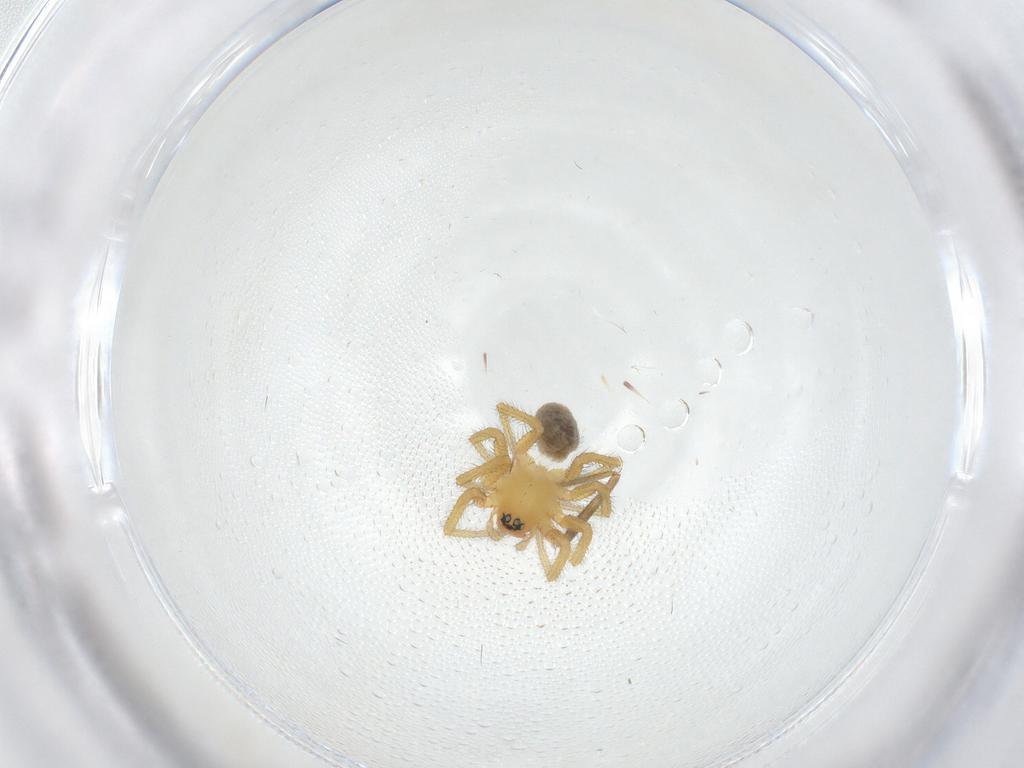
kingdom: Animalia
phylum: Arthropoda
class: Arachnida
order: Araneae
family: Linyphiidae
